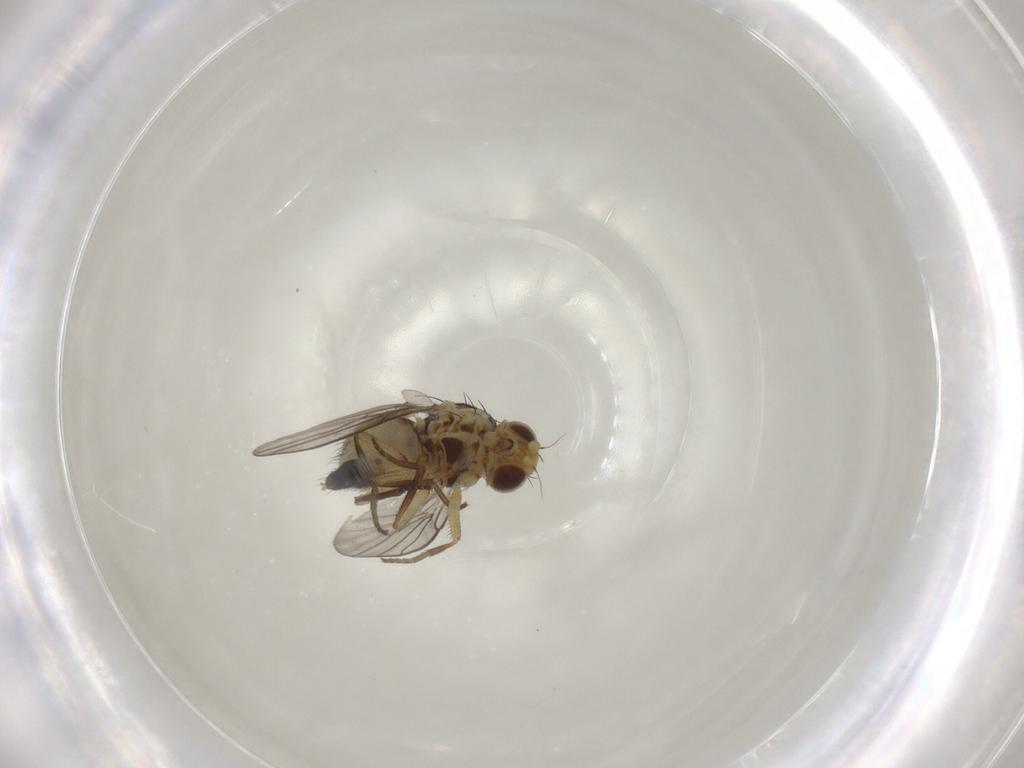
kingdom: Animalia
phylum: Arthropoda
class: Insecta
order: Diptera
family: Agromyzidae
